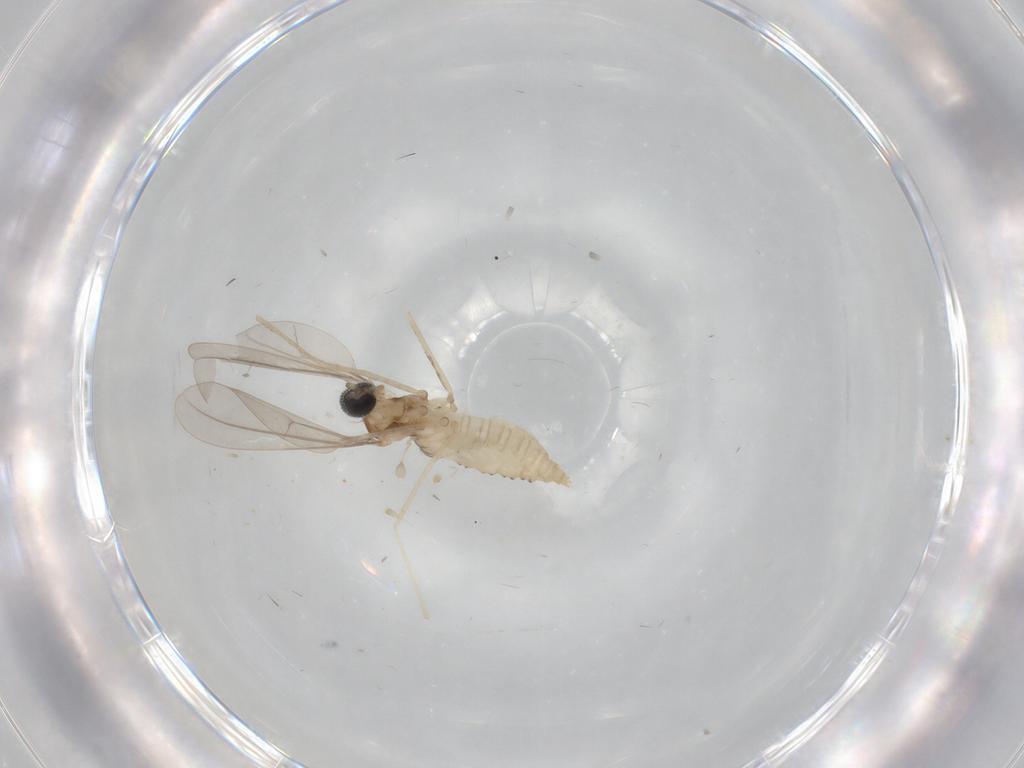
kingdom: Animalia
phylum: Arthropoda
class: Insecta
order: Diptera
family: Cecidomyiidae
